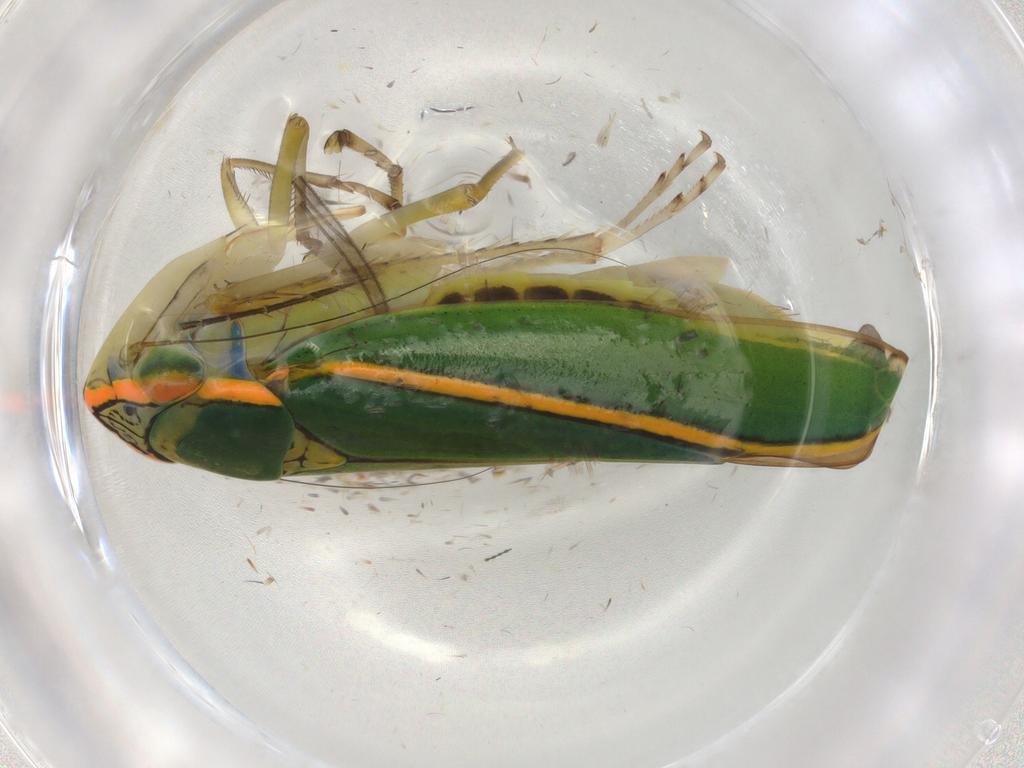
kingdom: Animalia
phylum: Arthropoda
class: Insecta
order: Hemiptera
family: Cicadellidae
